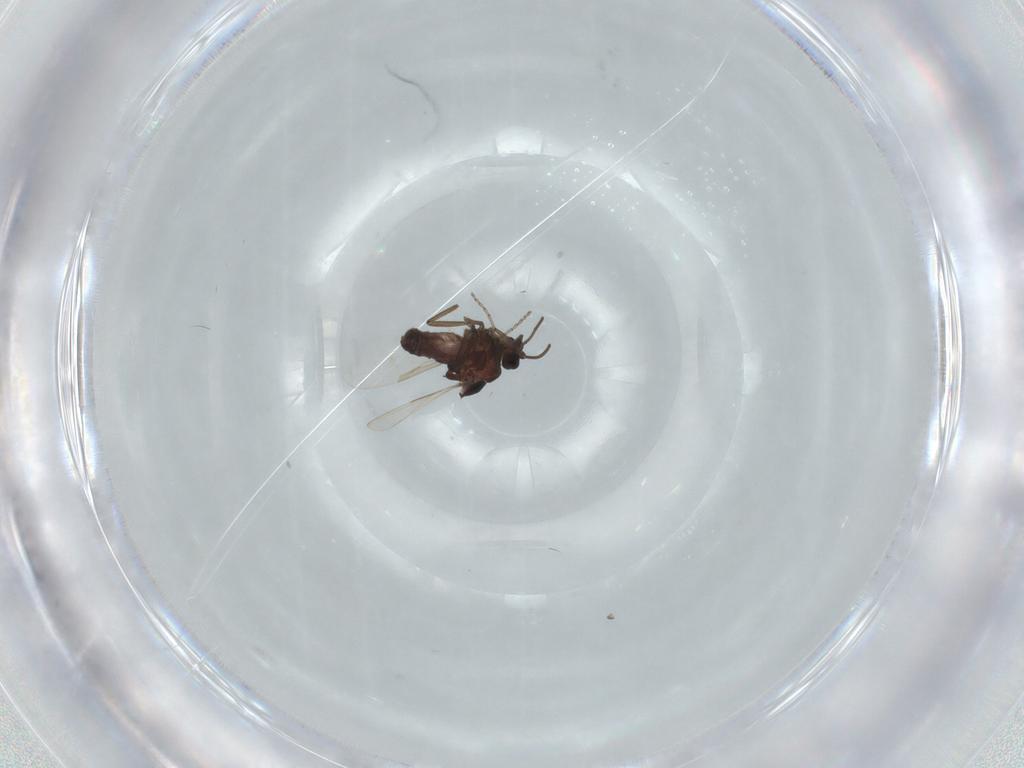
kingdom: Animalia
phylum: Arthropoda
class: Insecta
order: Diptera
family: Ceratopogonidae
